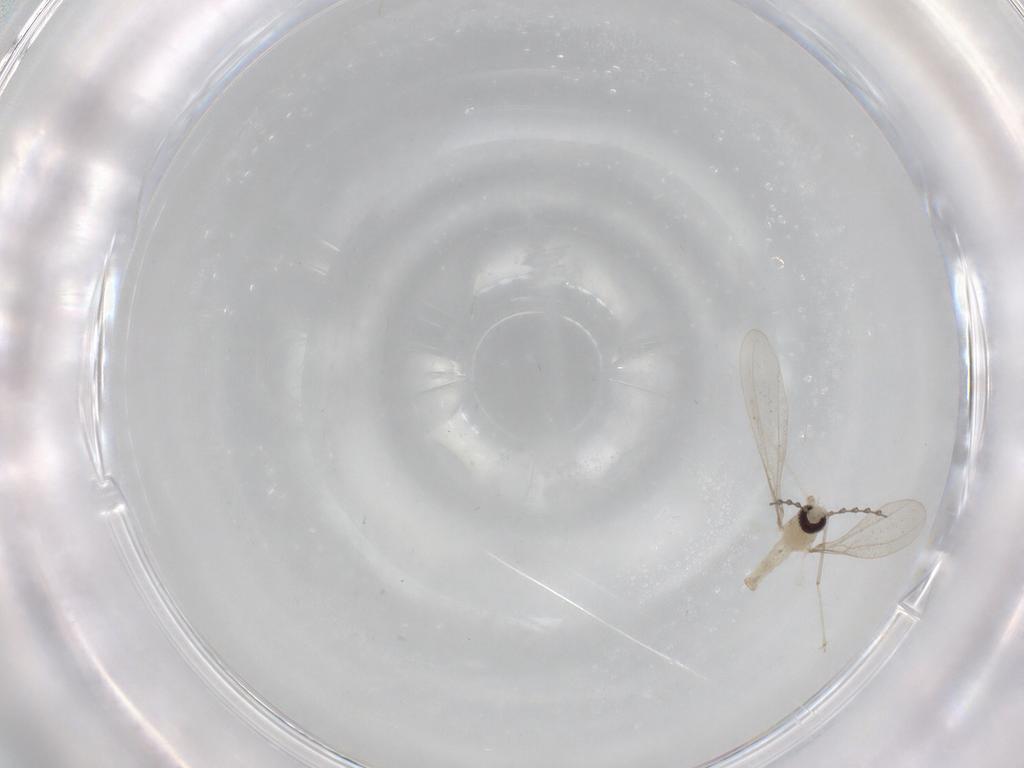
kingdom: Animalia
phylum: Arthropoda
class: Insecta
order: Diptera
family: Cecidomyiidae
